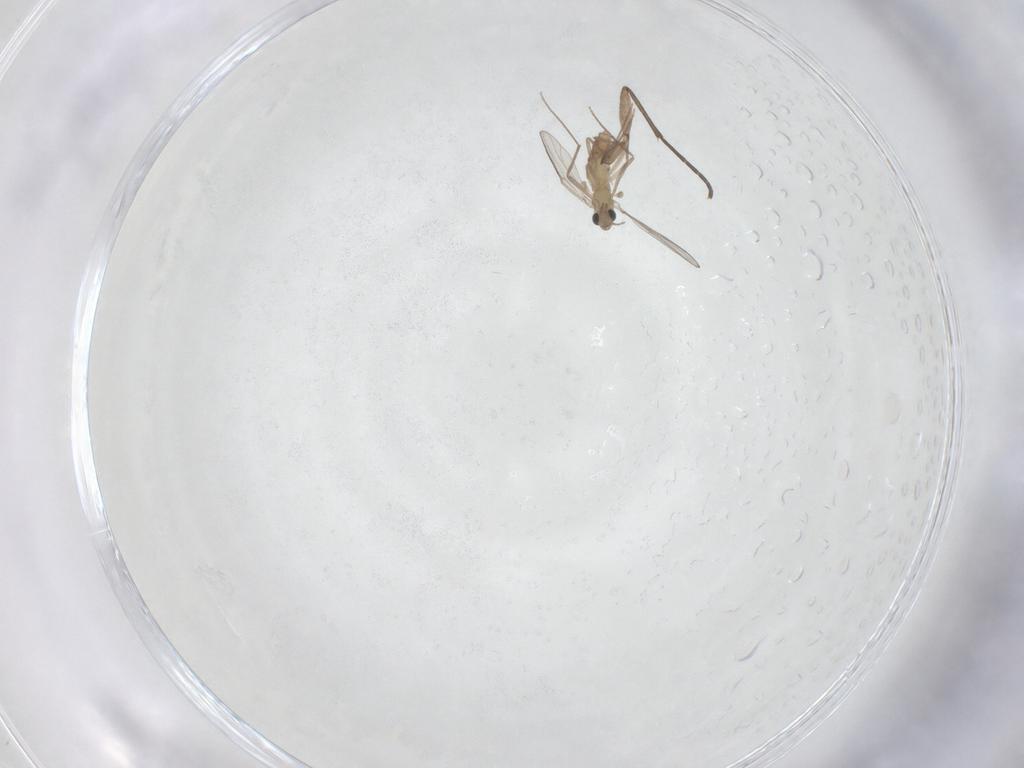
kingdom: Animalia
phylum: Arthropoda
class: Insecta
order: Diptera
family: Chironomidae
